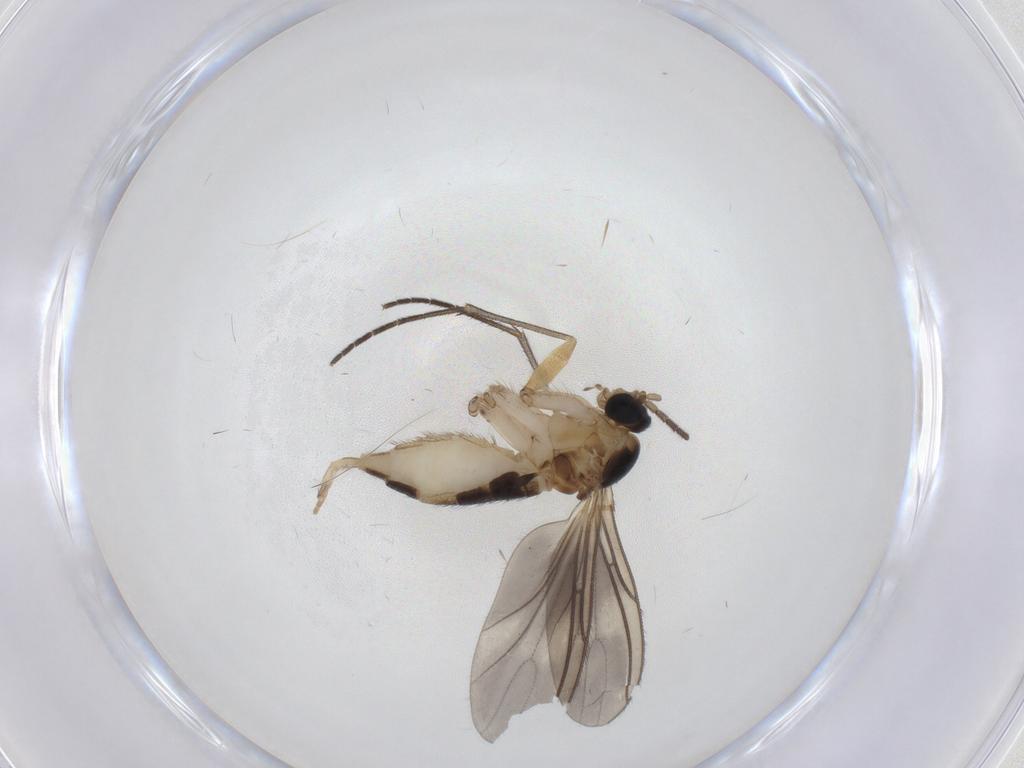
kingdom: Animalia
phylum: Arthropoda
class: Insecta
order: Diptera
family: Sciaridae
